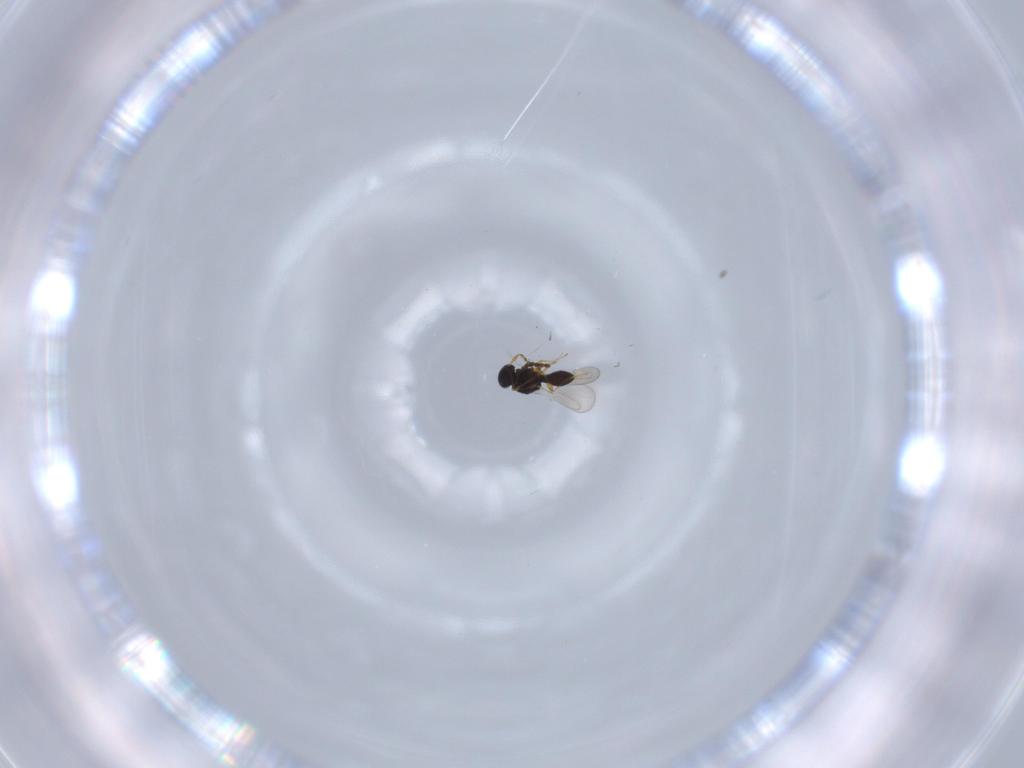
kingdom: Animalia
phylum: Arthropoda
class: Insecta
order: Hymenoptera
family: Platygastridae
